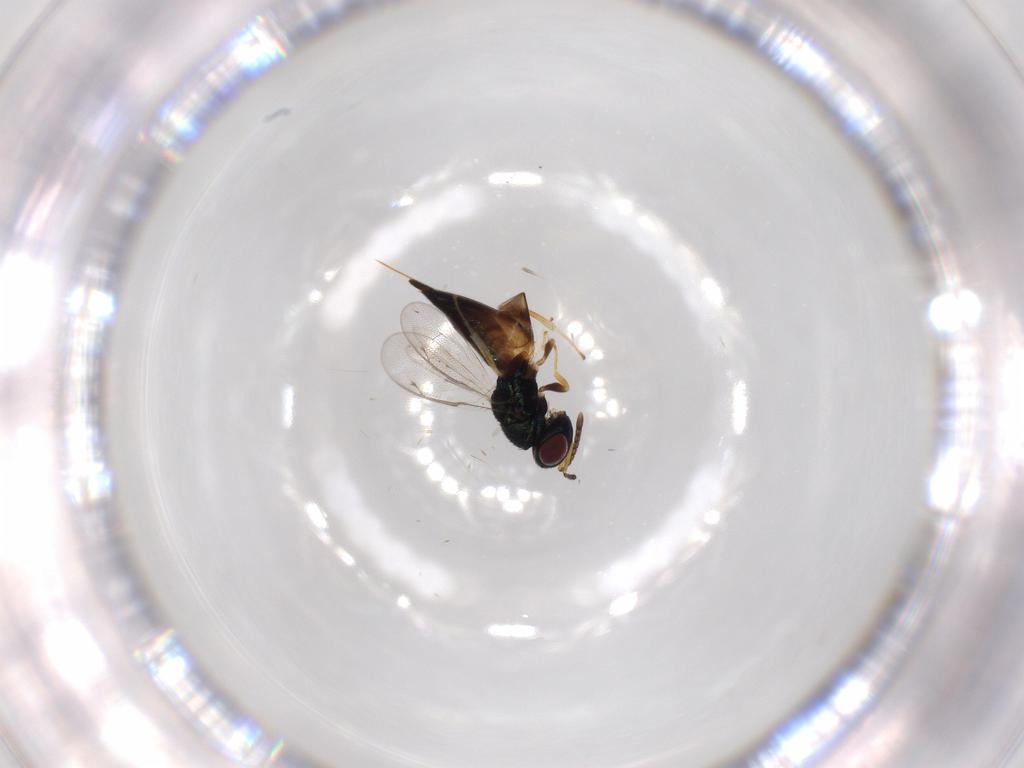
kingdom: Animalia
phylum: Arthropoda
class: Insecta
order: Hymenoptera
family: Pteromalidae
